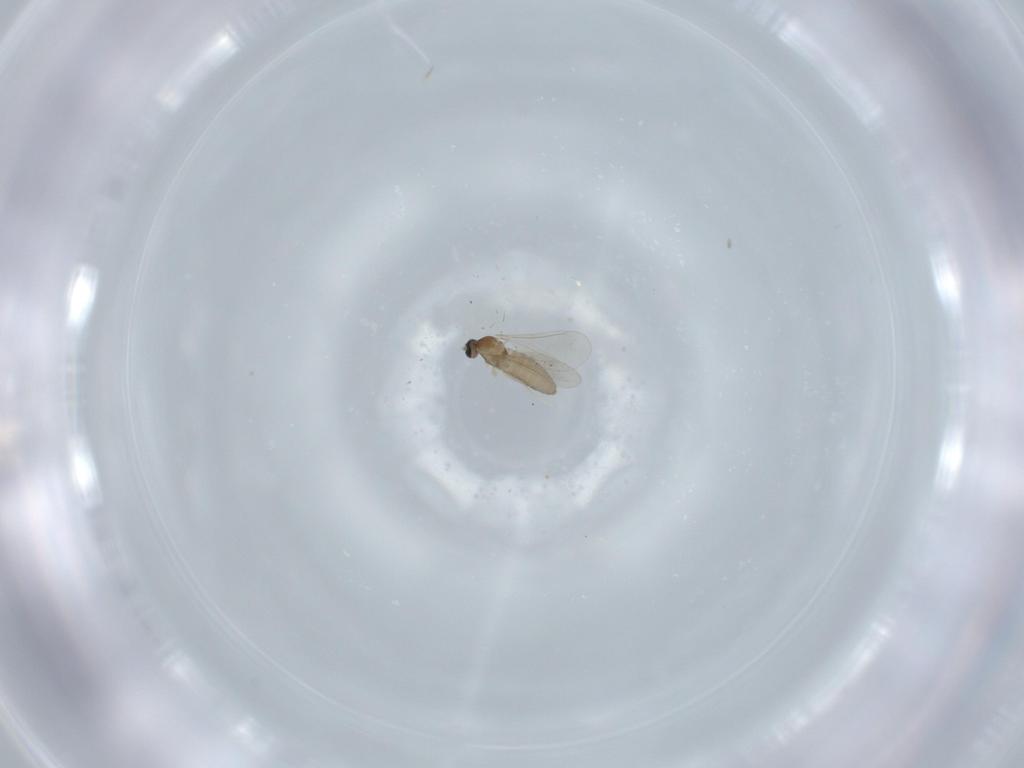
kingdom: Animalia
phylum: Arthropoda
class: Insecta
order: Diptera
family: Cecidomyiidae
